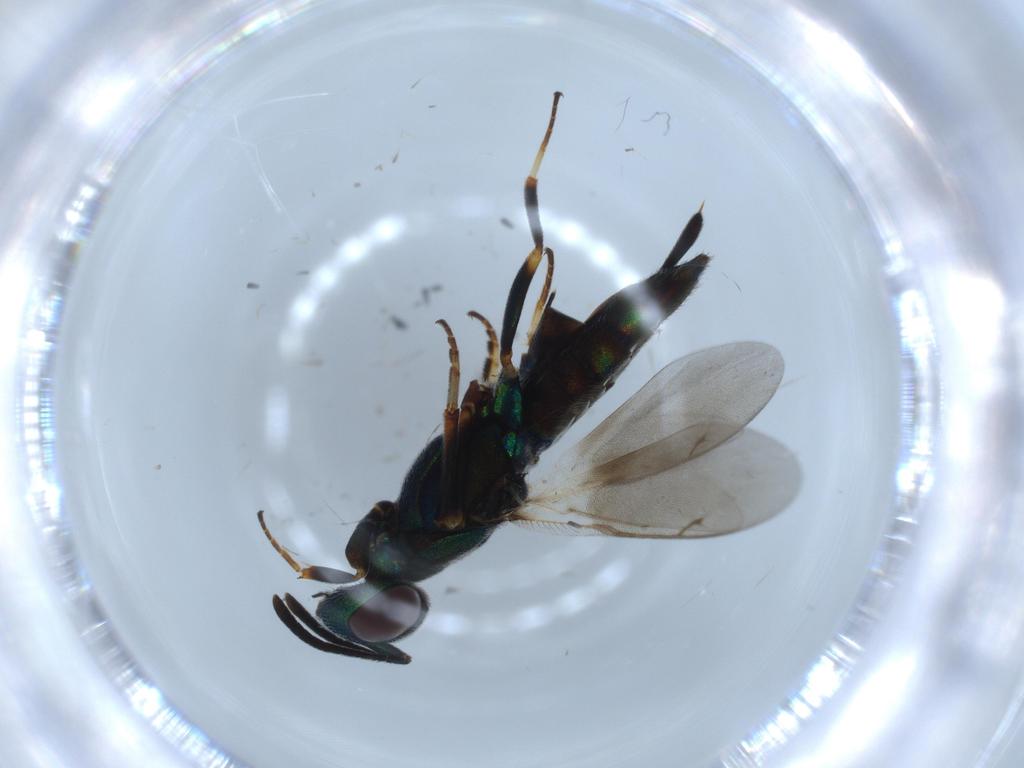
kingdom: Animalia
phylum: Arthropoda
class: Insecta
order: Hymenoptera
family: Eupelmidae
